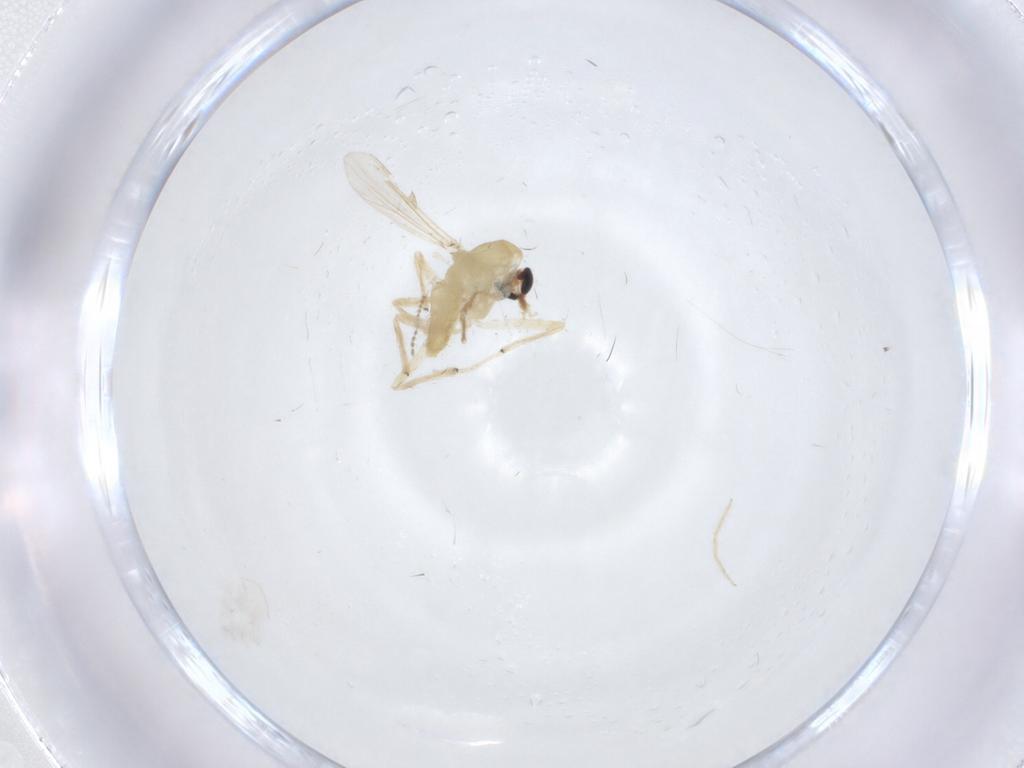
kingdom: Animalia
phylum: Arthropoda
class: Insecta
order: Diptera
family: Chironomidae
